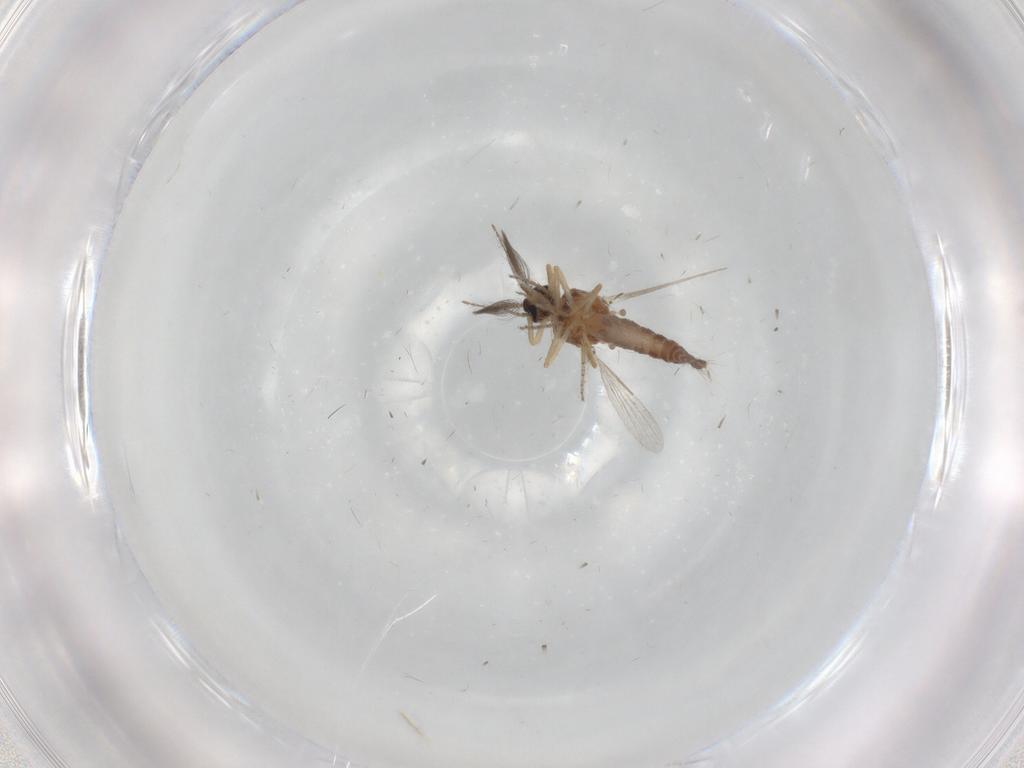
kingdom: Animalia
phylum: Arthropoda
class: Insecta
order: Diptera
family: Ceratopogonidae
